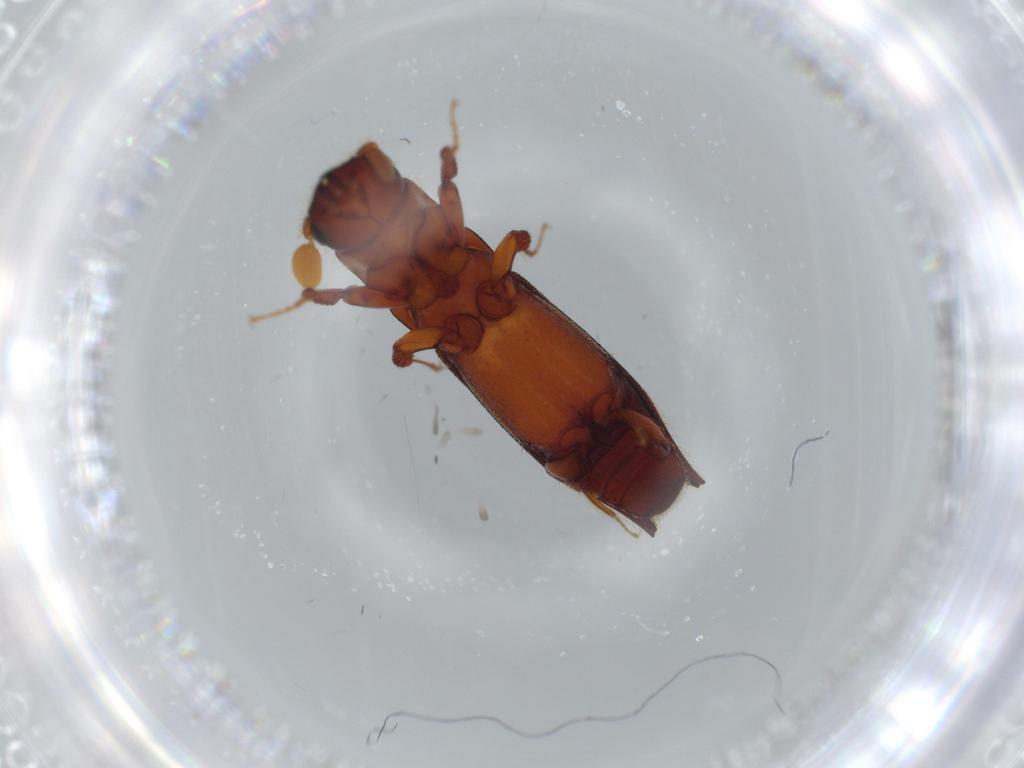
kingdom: Animalia
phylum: Arthropoda
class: Insecta
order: Coleoptera
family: Curculionidae
